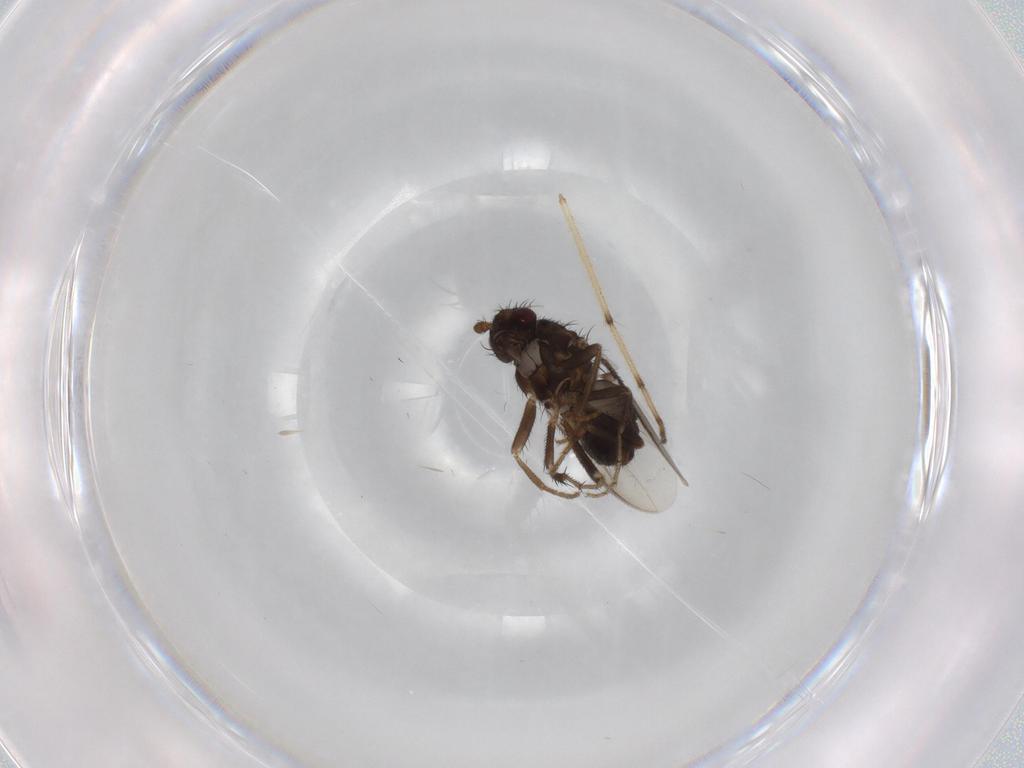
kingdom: Animalia
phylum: Arthropoda
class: Insecta
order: Diptera
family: Sphaeroceridae
